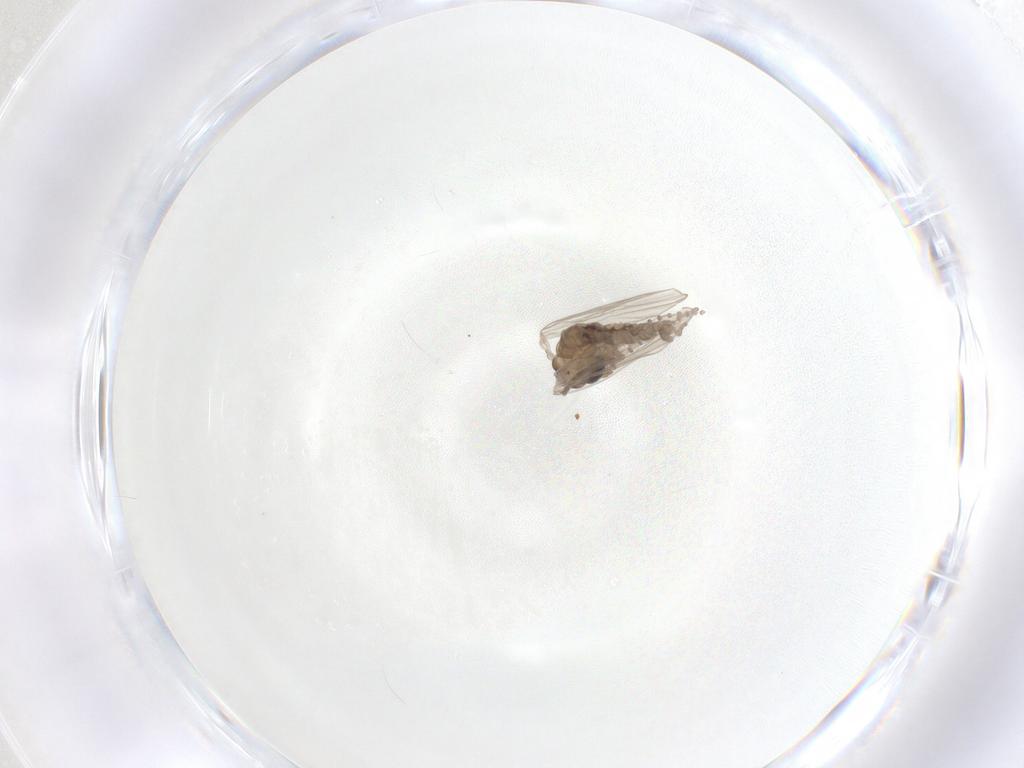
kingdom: Animalia
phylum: Arthropoda
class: Insecta
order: Diptera
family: Psychodidae
